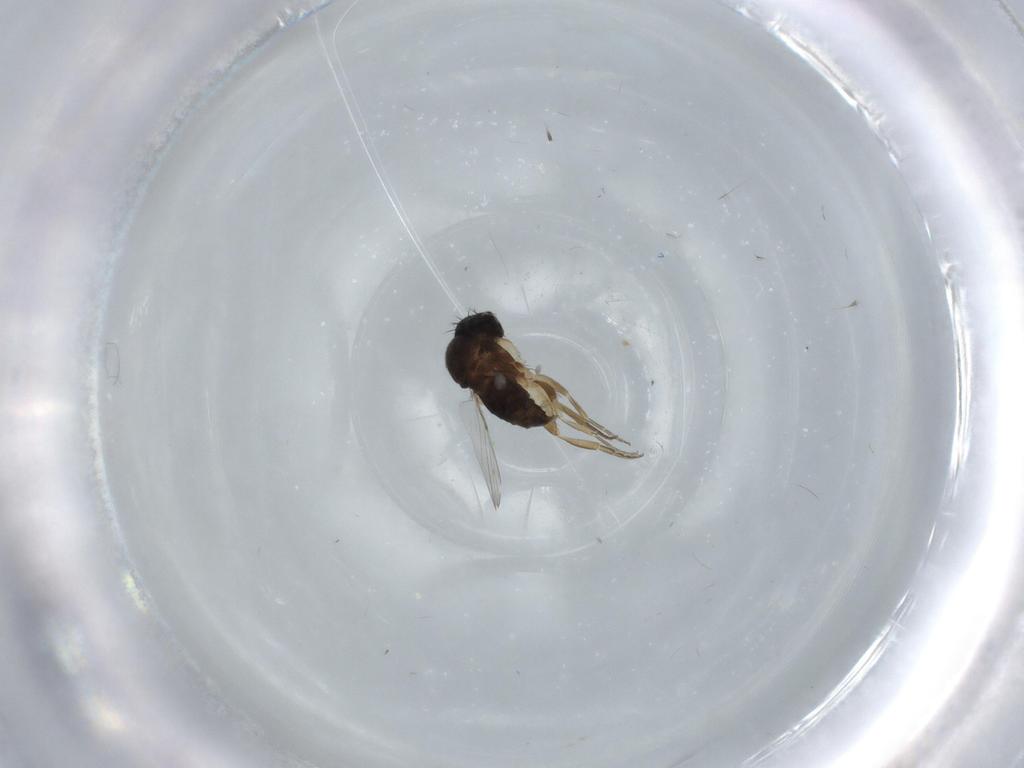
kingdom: Animalia
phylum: Arthropoda
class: Insecta
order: Diptera
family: Phoridae
